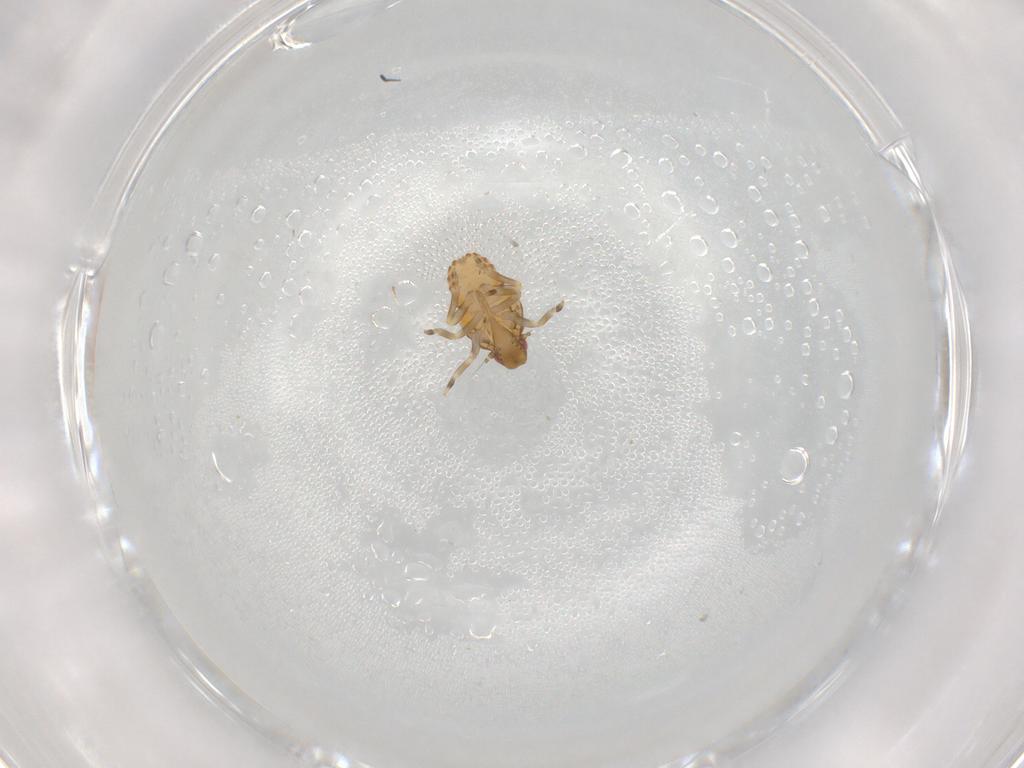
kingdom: Animalia
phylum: Arthropoda
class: Insecta
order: Hemiptera
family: Flatidae
